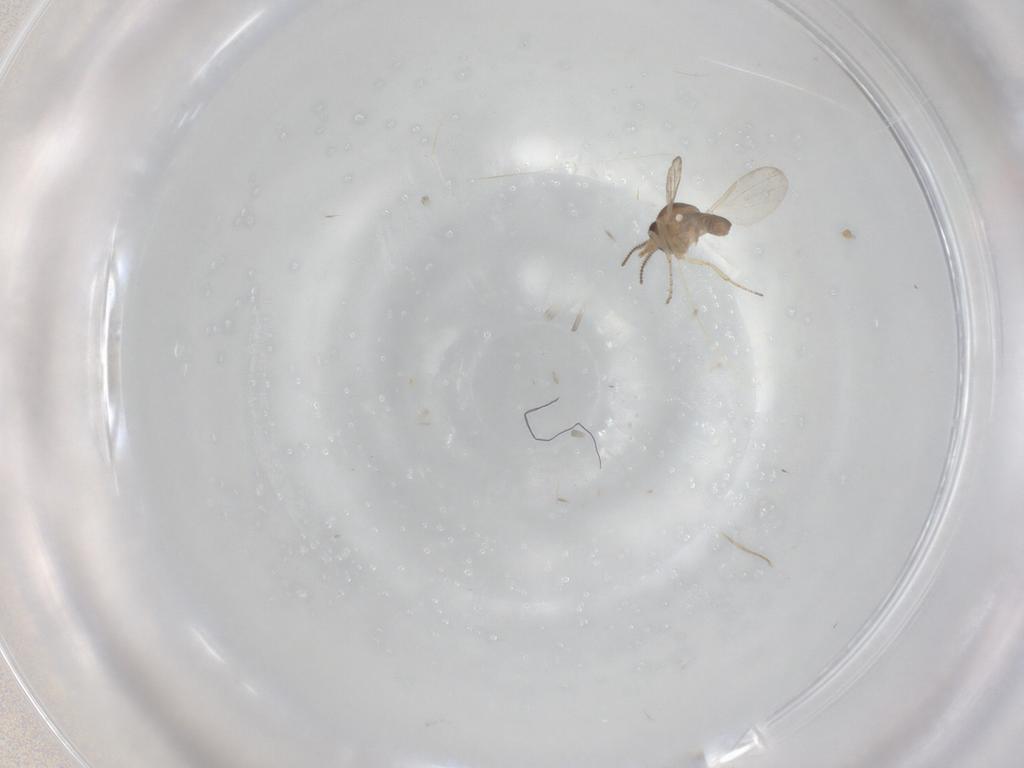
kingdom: Animalia
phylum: Arthropoda
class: Insecta
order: Diptera
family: Ceratopogonidae
